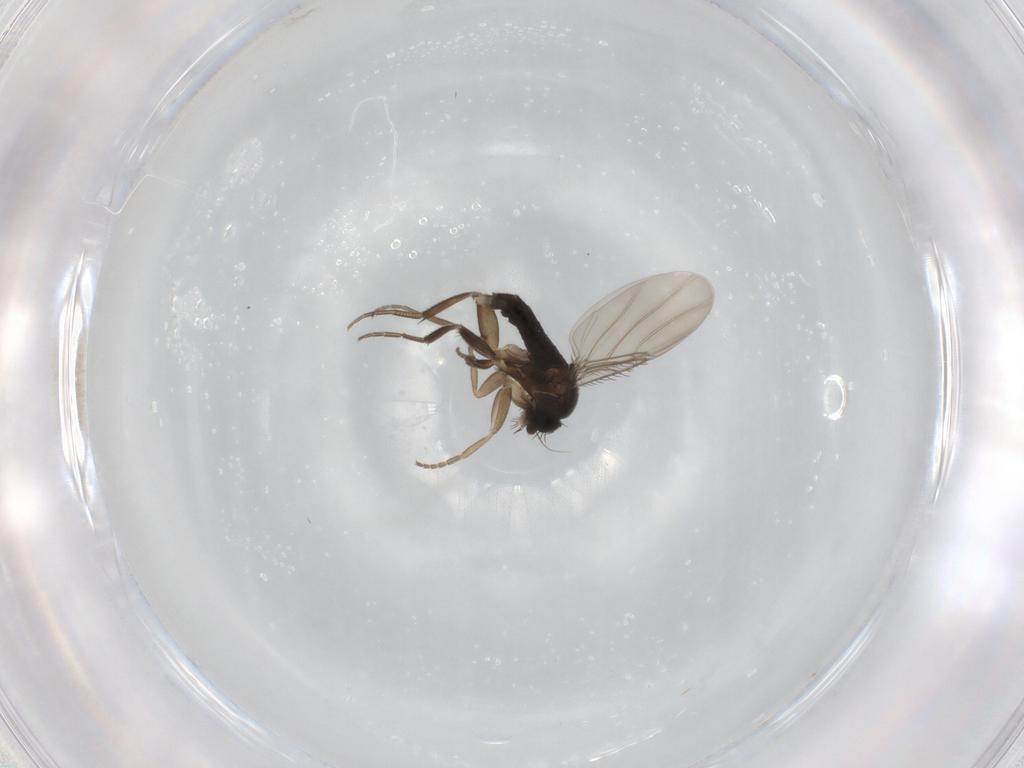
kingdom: Animalia
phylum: Arthropoda
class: Insecta
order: Diptera
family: Phoridae
